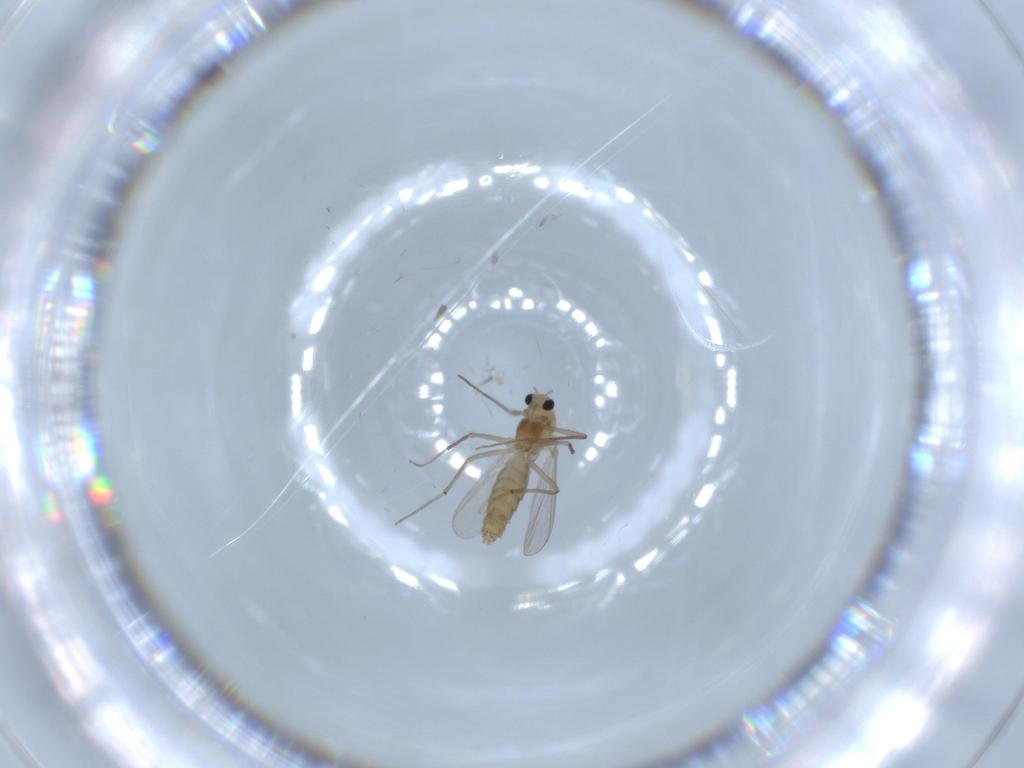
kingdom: Animalia
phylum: Arthropoda
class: Insecta
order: Diptera
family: Chironomidae
